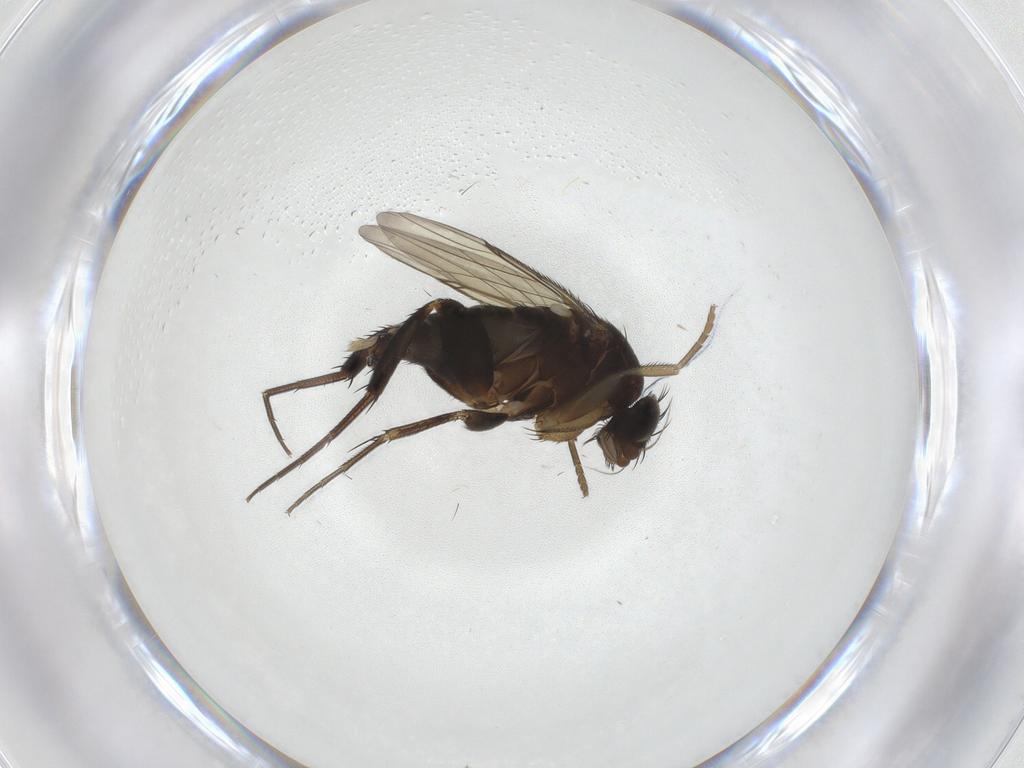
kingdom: Animalia
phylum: Arthropoda
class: Insecta
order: Diptera
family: Phoridae
